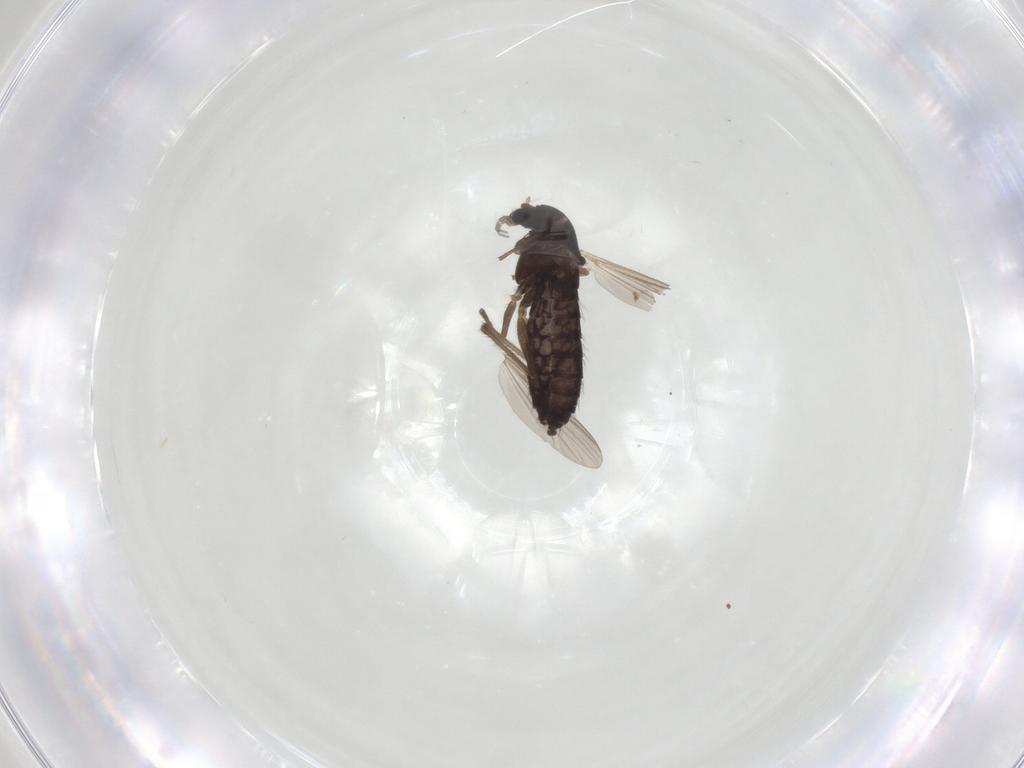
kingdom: Animalia
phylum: Arthropoda
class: Insecta
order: Diptera
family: Chironomidae
